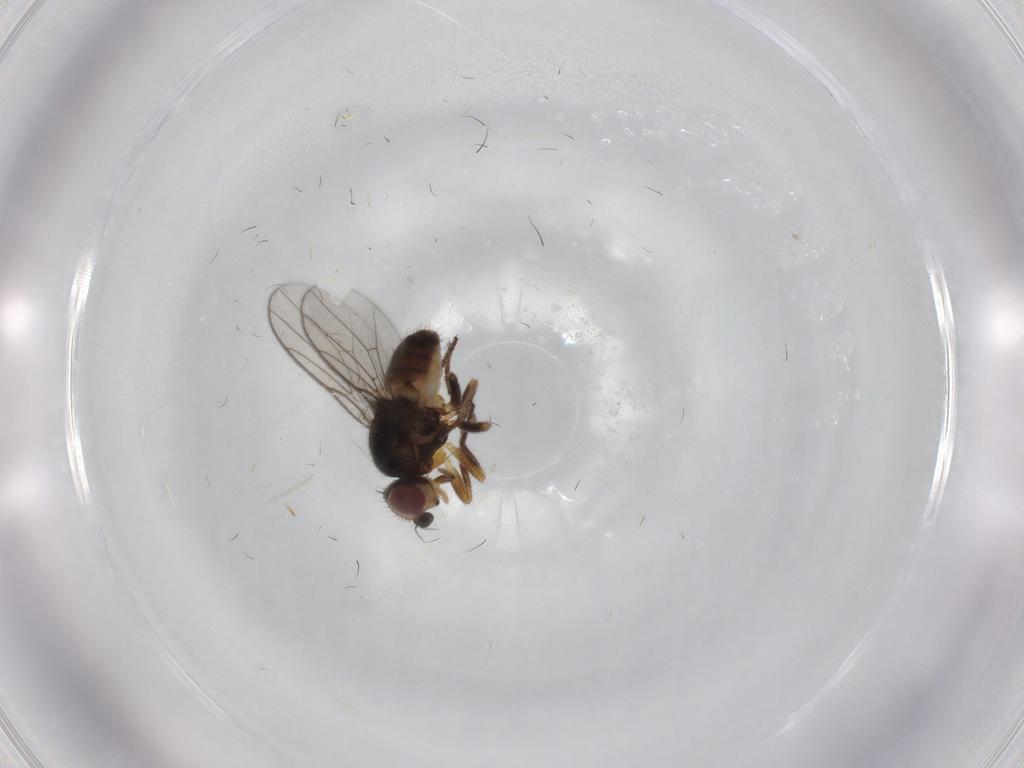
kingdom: Animalia
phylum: Arthropoda
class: Insecta
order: Diptera
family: Chloropidae
